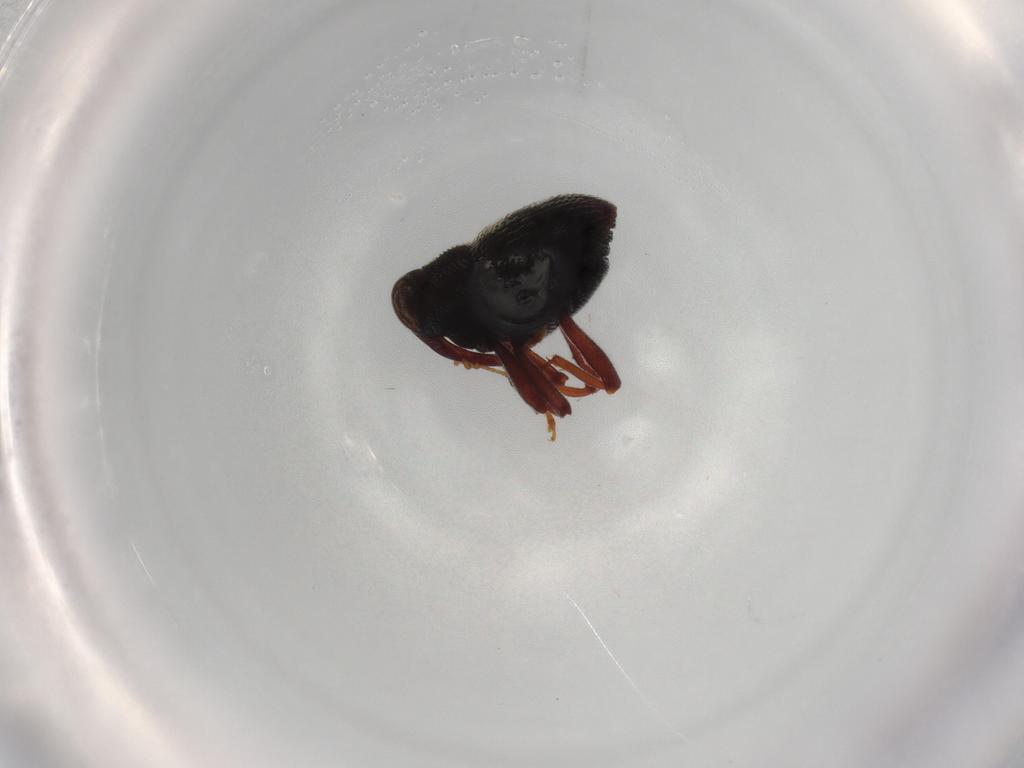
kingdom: Animalia
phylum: Arthropoda
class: Insecta
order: Coleoptera
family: Curculionidae
